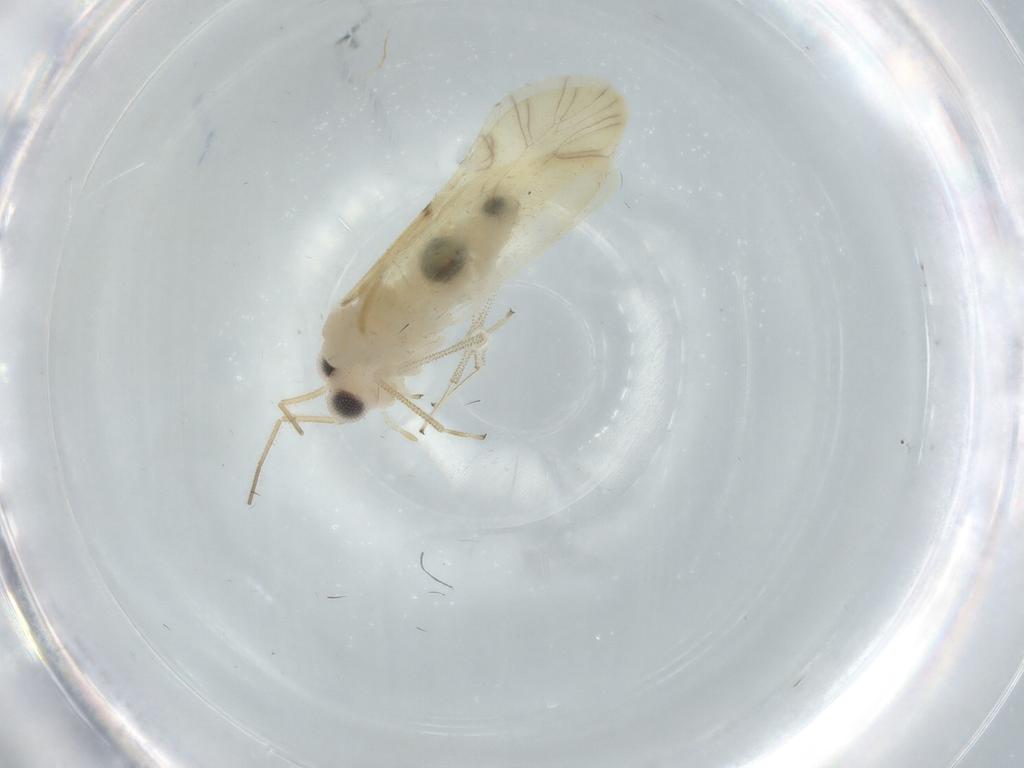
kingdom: Animalia
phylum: Arthropoda
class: Insecta
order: Psocodea
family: Caeciliusidae
